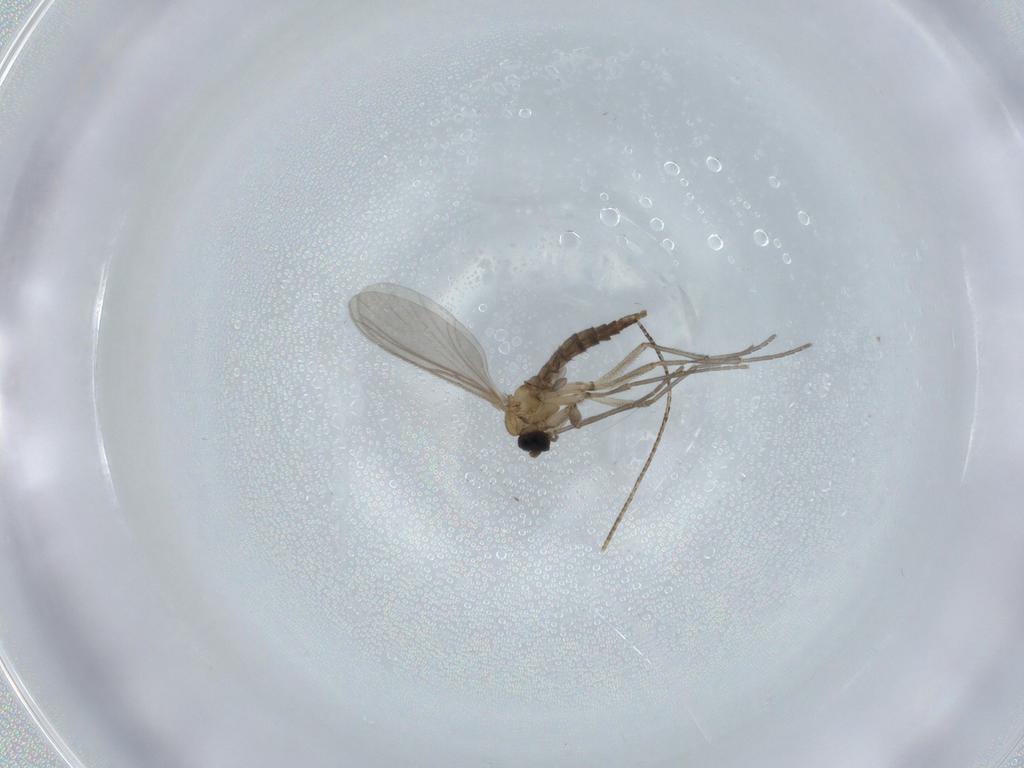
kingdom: Animalia
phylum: Arthropoda
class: Insecta
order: Diptera
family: Sciaridae
